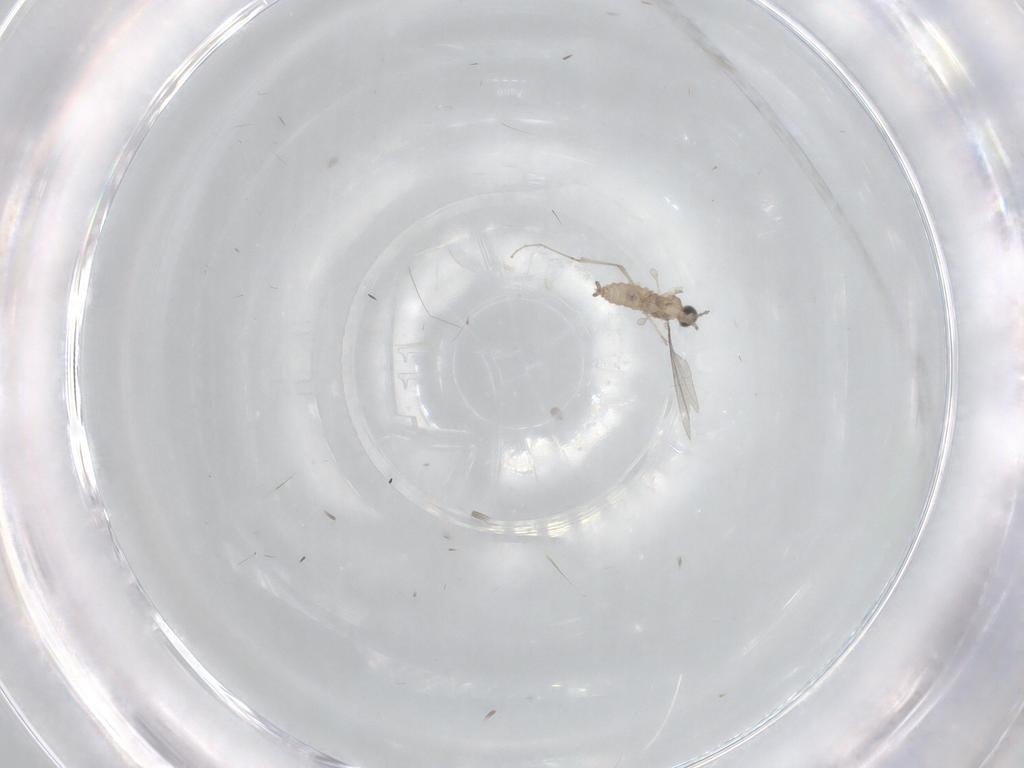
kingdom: Animalia
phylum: Arthropoda
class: Insecta
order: Diptera
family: Cecidomyiidae
